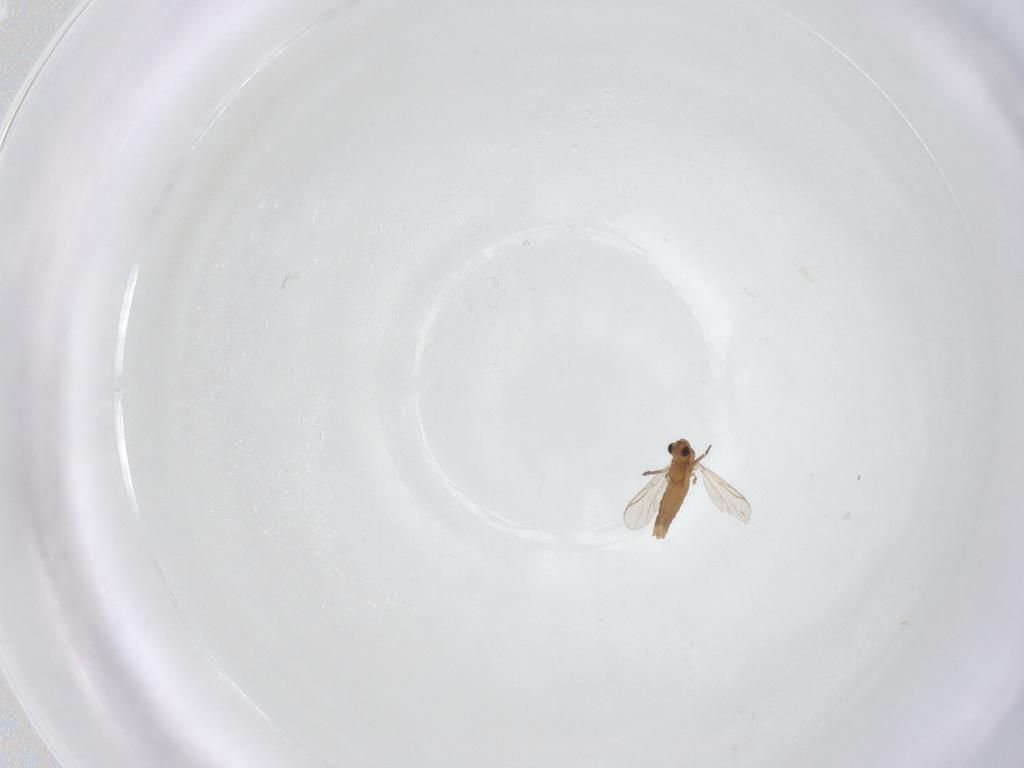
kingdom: Animalia
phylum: Arthropoda
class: Insecta
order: Diptera
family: Chironomidae
